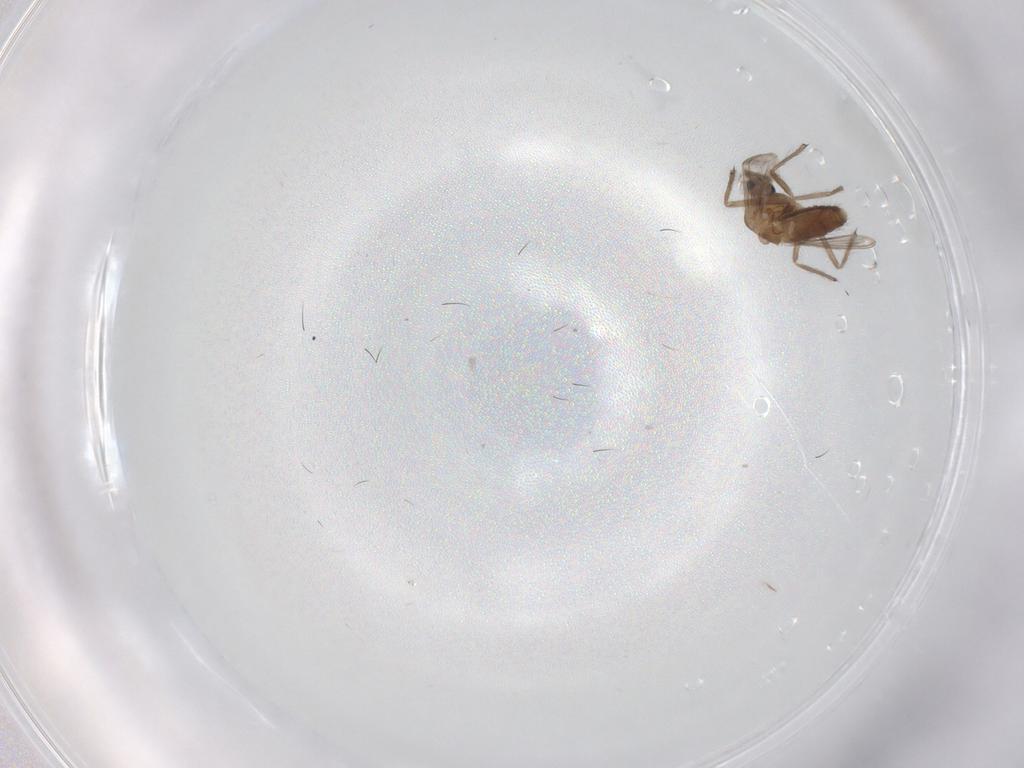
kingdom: Animalia
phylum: Arthropoda
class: Insecta
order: Diptera
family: Chironomidae
